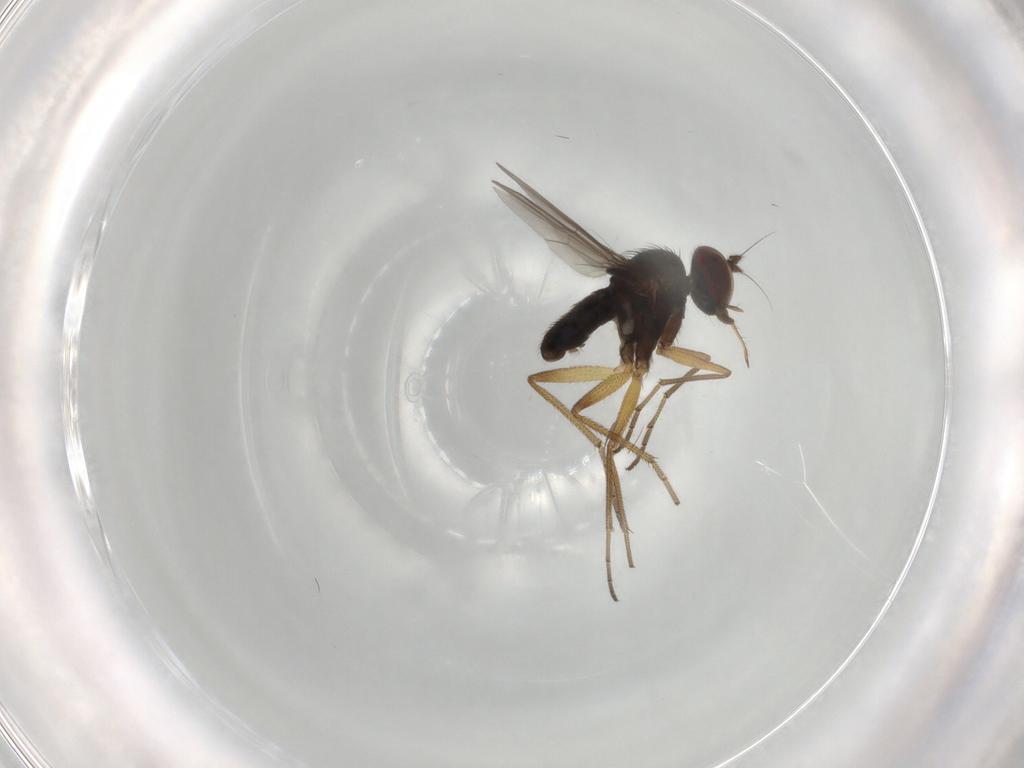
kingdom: Animalia
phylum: Arthropoda
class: Insecta
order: Diptera
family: Dolichopodidae
